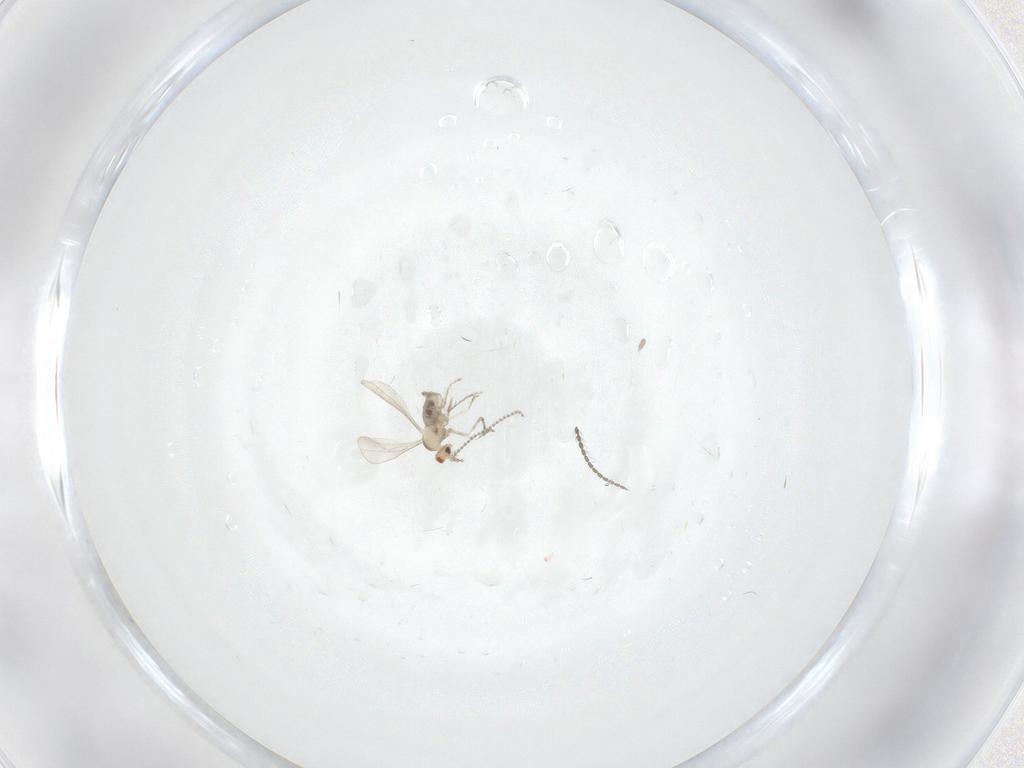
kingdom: Animalia
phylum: Arthropoda
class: Insecta
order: Diptera
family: Cecidomyiidae
